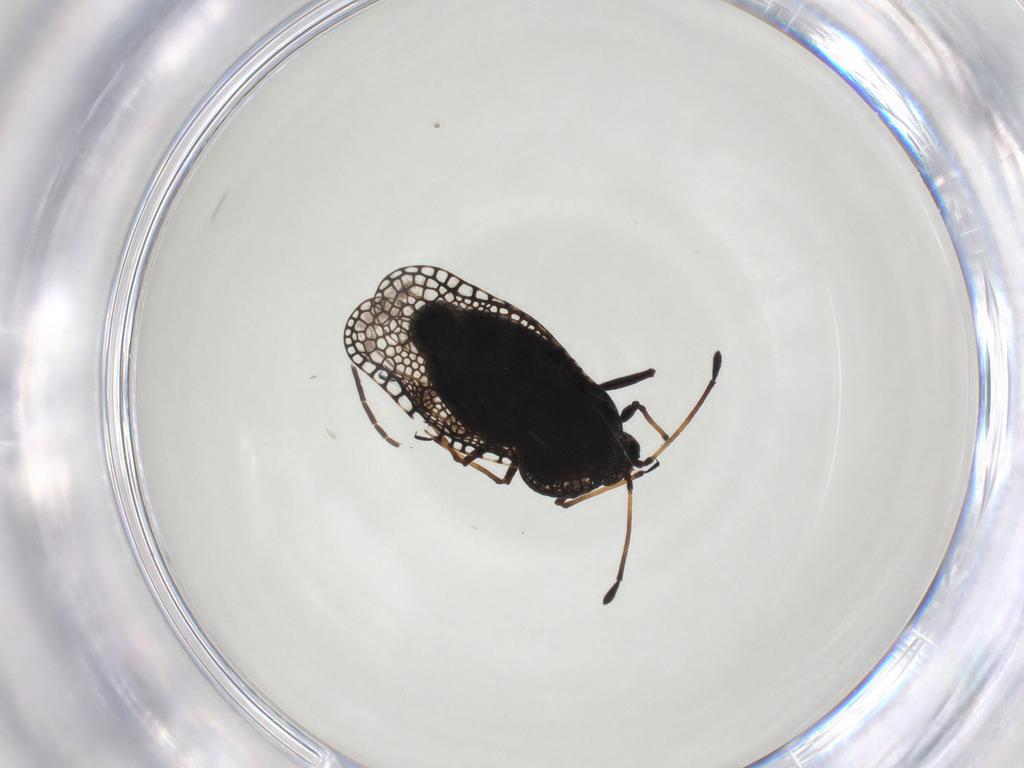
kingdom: Animalia
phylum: Arthropoda
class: Insecta
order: Hemiptera
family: Tingidae
